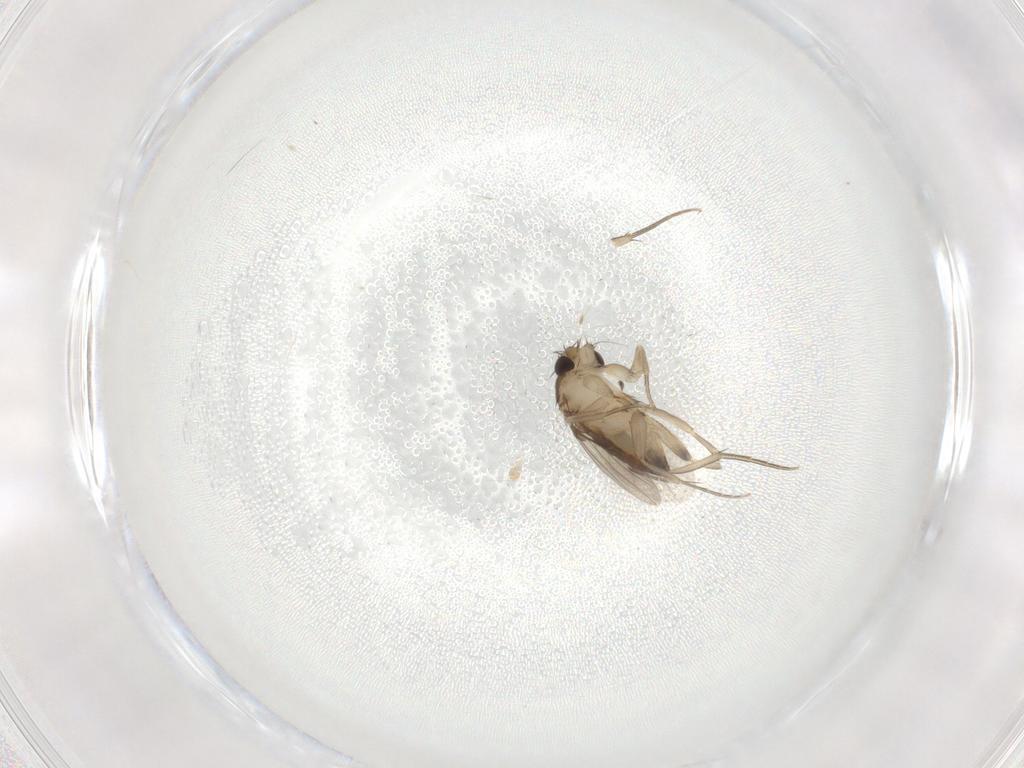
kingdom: Animalia
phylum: Arthropoda
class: Insecta
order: Diptera
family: Phoridae
